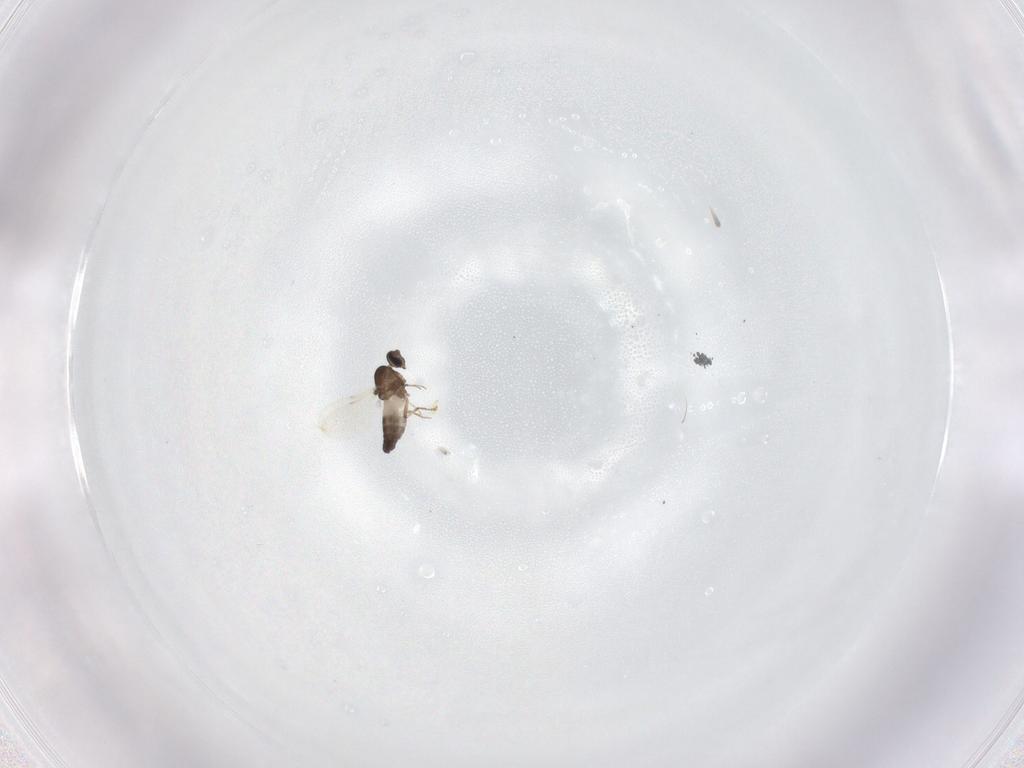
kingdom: Animalia
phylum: Arthropoda
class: Insecta
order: Diptera
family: Ceratopogonidae
